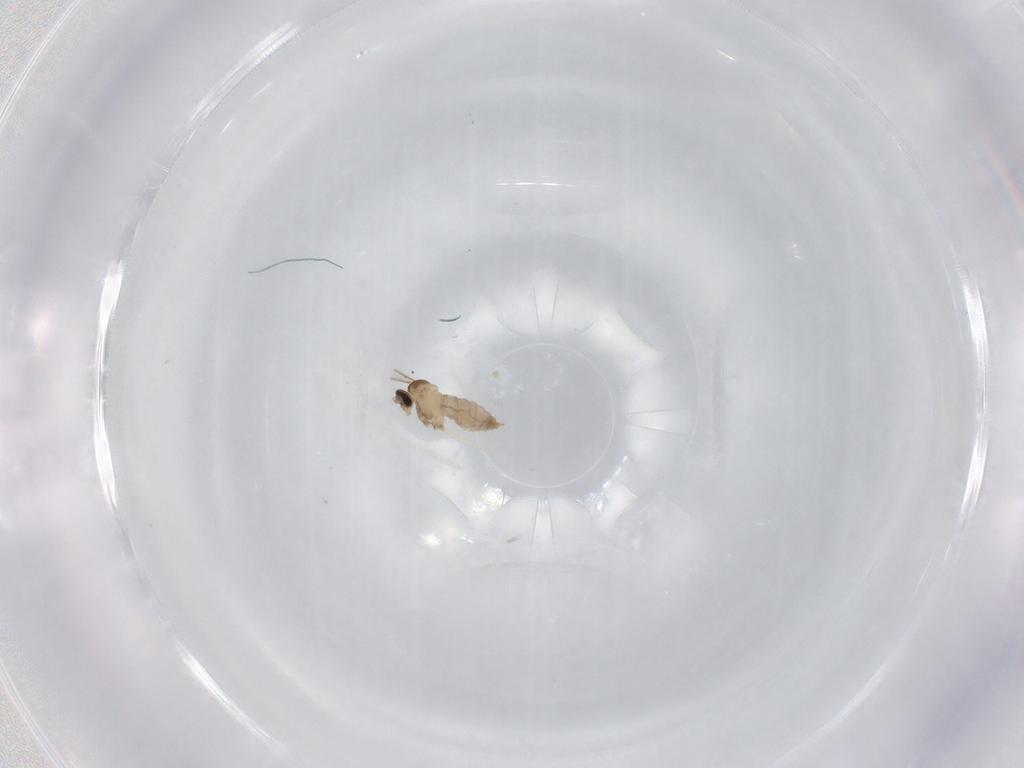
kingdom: Animalia
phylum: Arthropoda
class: Insecta
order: Diptera
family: Cecidomyiidae
